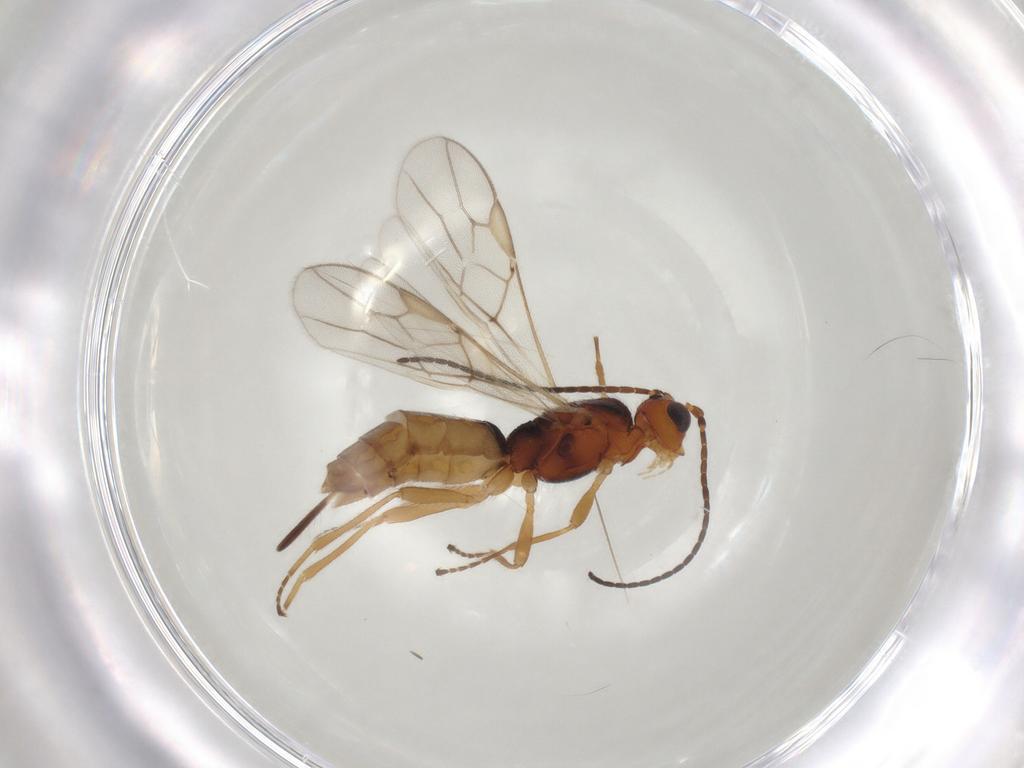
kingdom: Animalia
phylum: Arthropoda
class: Insecta
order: Hymenoptera
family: Braconidae
